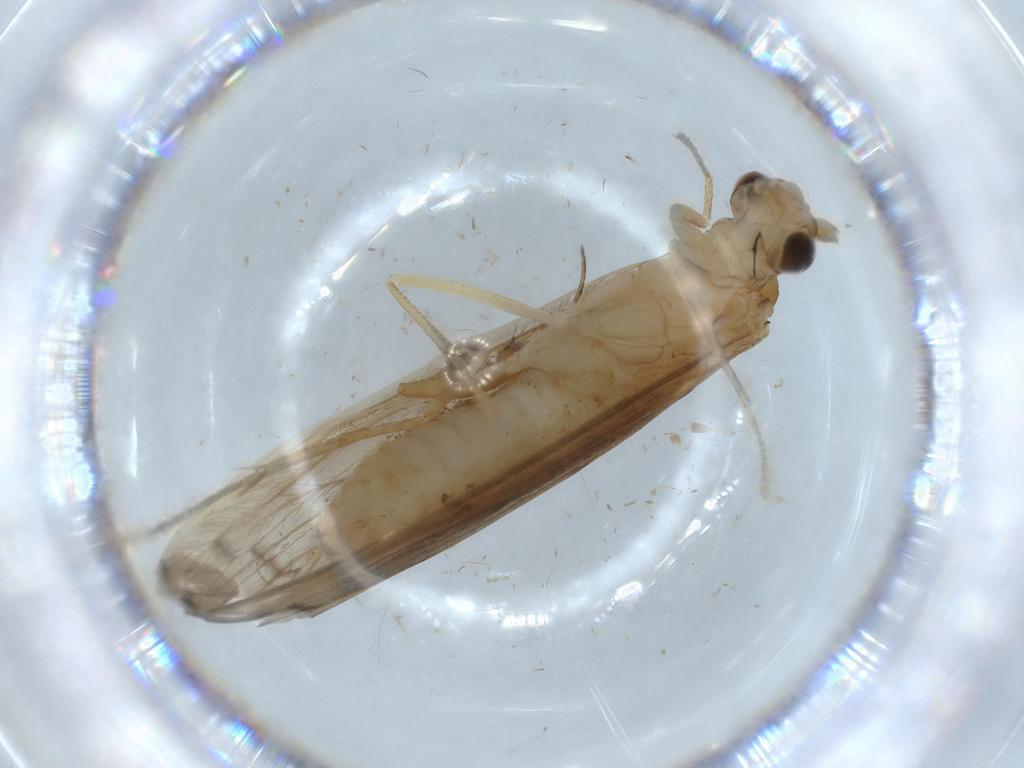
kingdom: Animalia
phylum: Arthropoda
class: Insecta
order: Trichoptera
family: Leptoceridae
